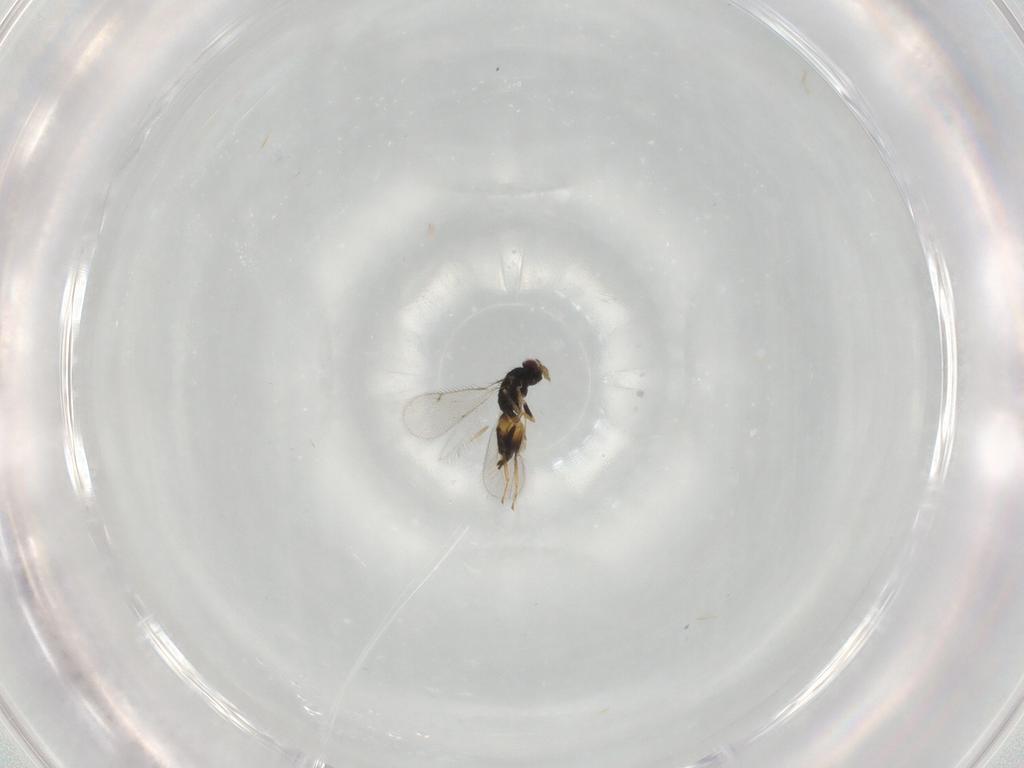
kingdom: Animalia
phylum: Arthropoda
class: Insecta
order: Hymenoptera
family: Eulophidae
